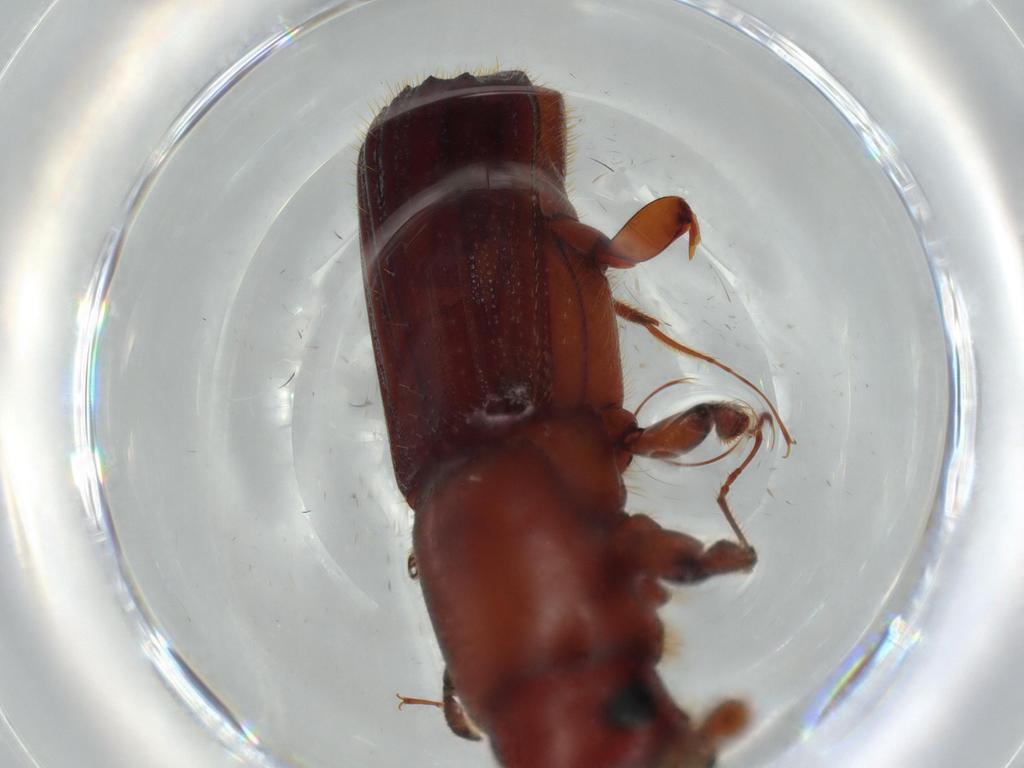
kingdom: Animalia
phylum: Arthropoda
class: Insecta
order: Coleoptera
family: Curculionidae
